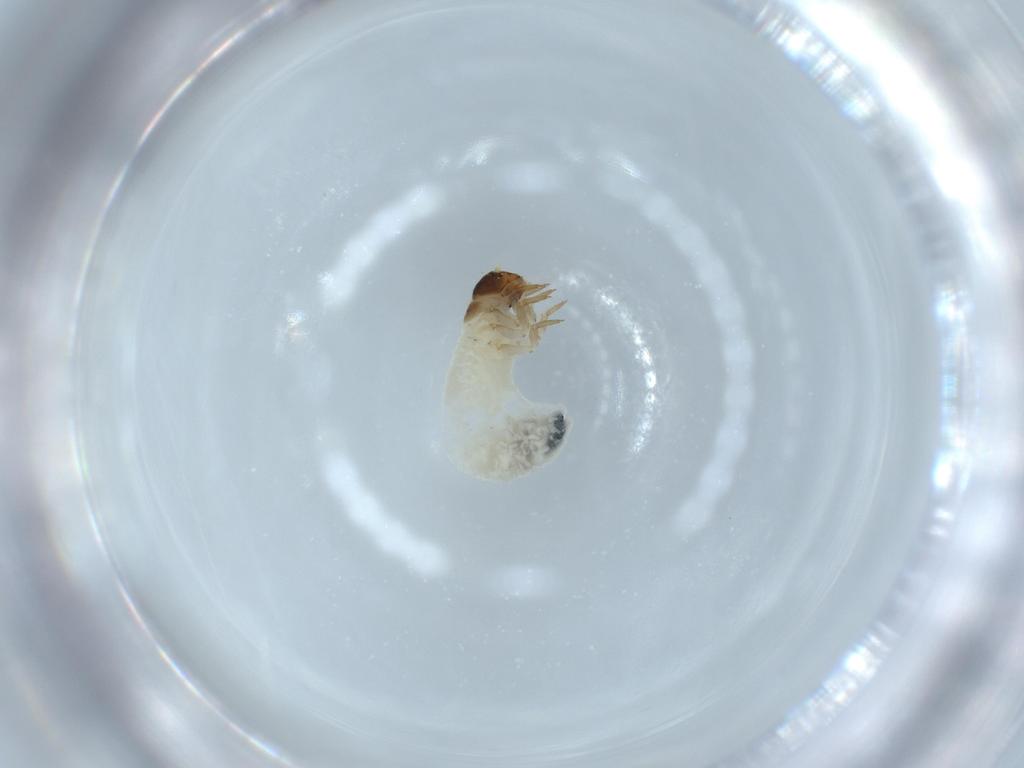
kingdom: Animalia
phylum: Arthropoda
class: Insecta
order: Coleoptera
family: Chrysomelidae
